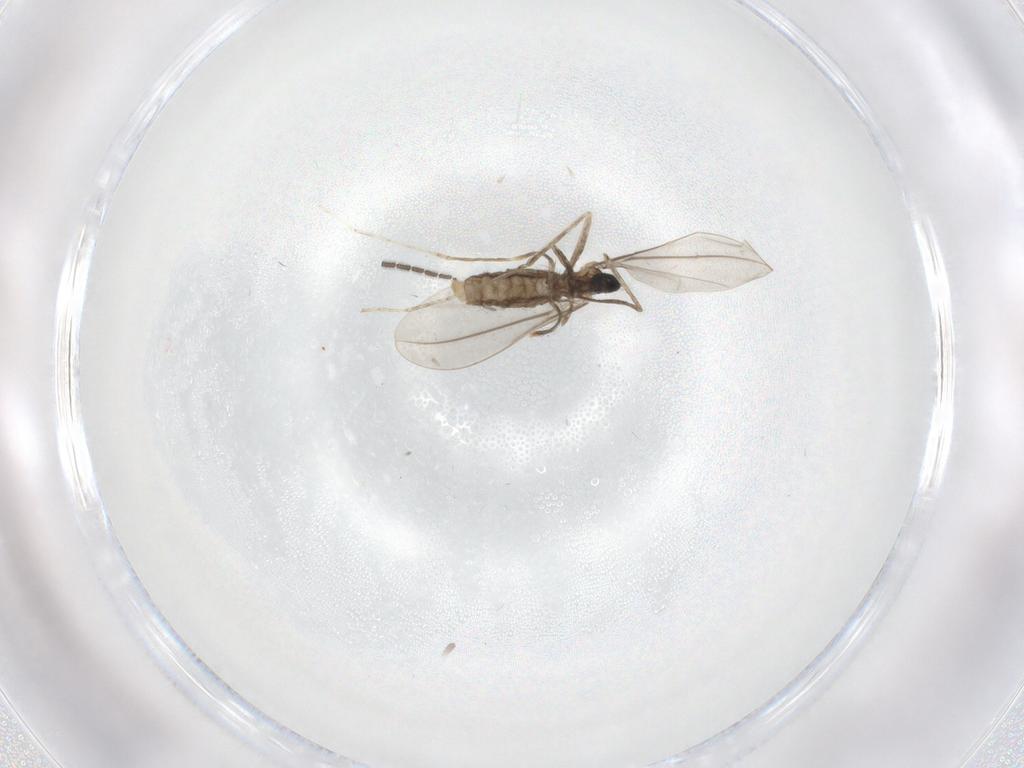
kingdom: Animalia
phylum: Arthropoda
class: Insecta
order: Diptera
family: Cecidomyiidae
